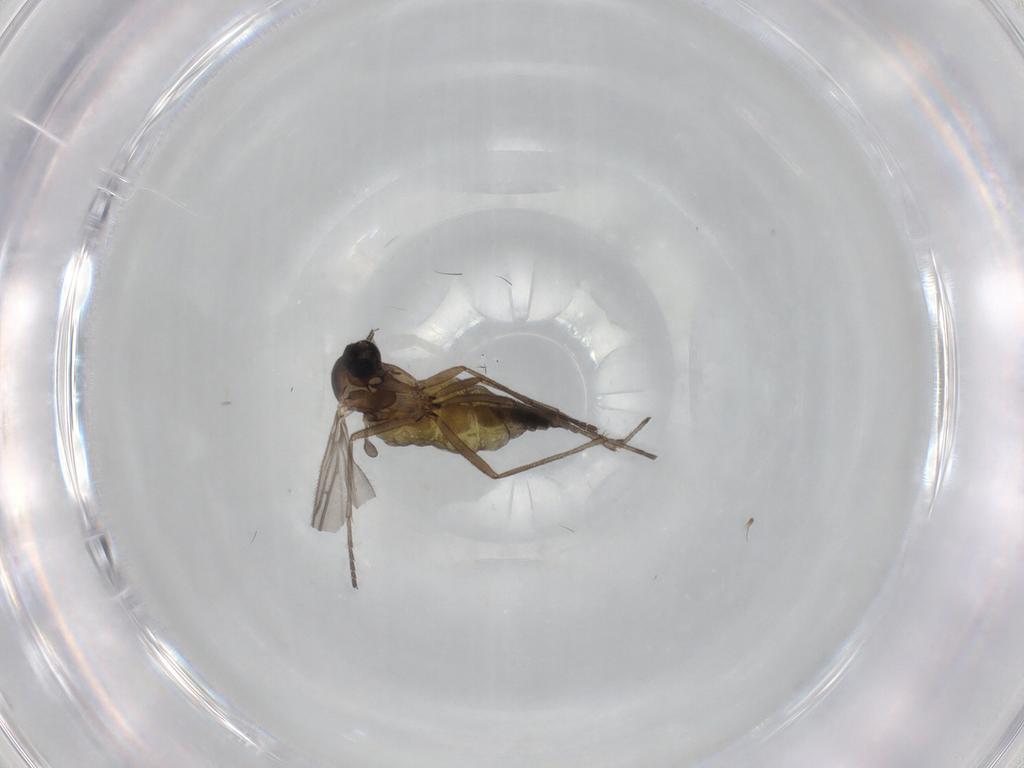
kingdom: Animalia
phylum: Arthropoda
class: Insecta
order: Diptera
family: Sciaridae
